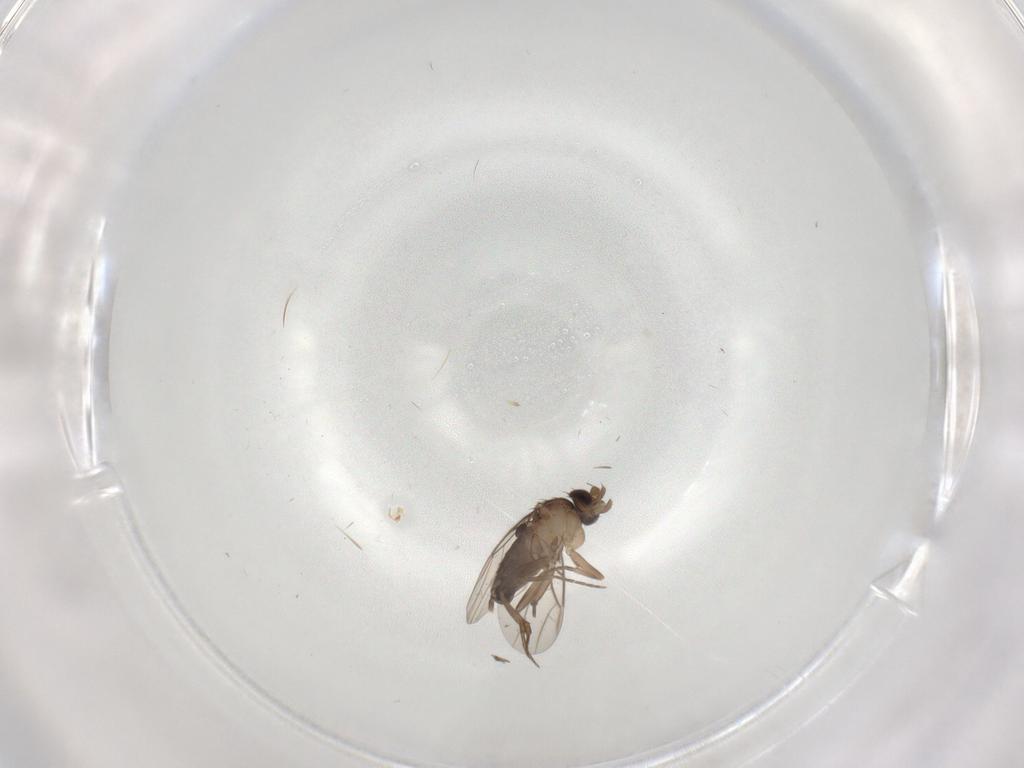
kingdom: Animalia
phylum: Arthropoda
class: Insecta
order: Diptera
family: Phoridae
